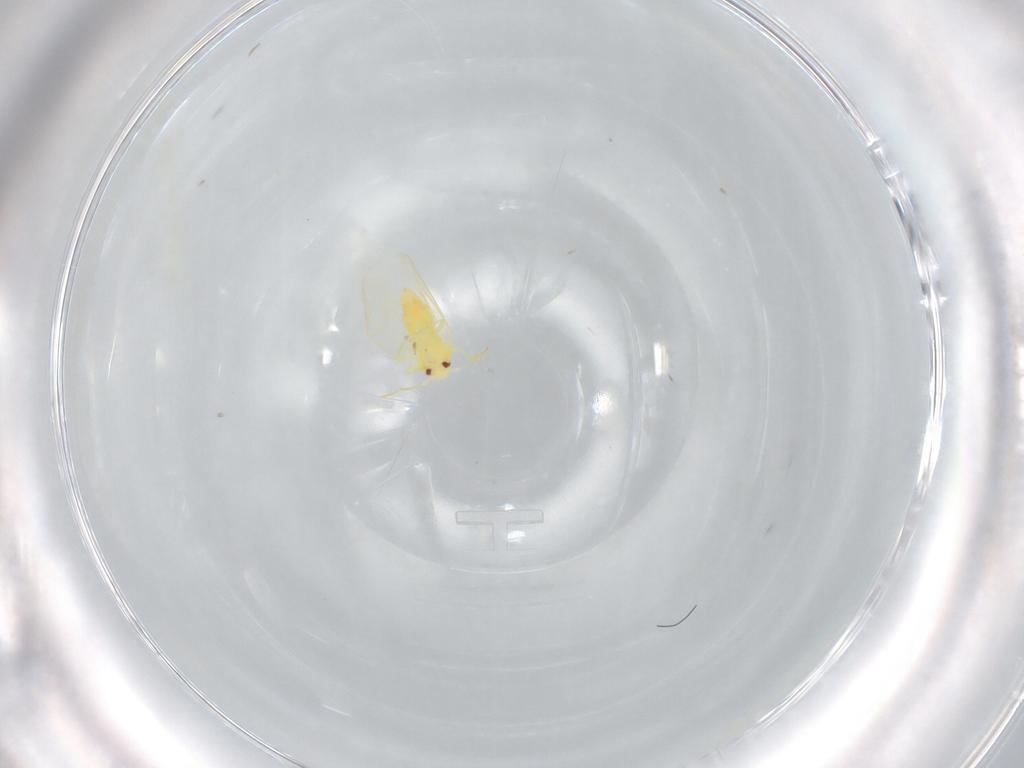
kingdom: Animalia
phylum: Arthropoda
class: Insecta
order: Hemiptera
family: Aleyrodidae
